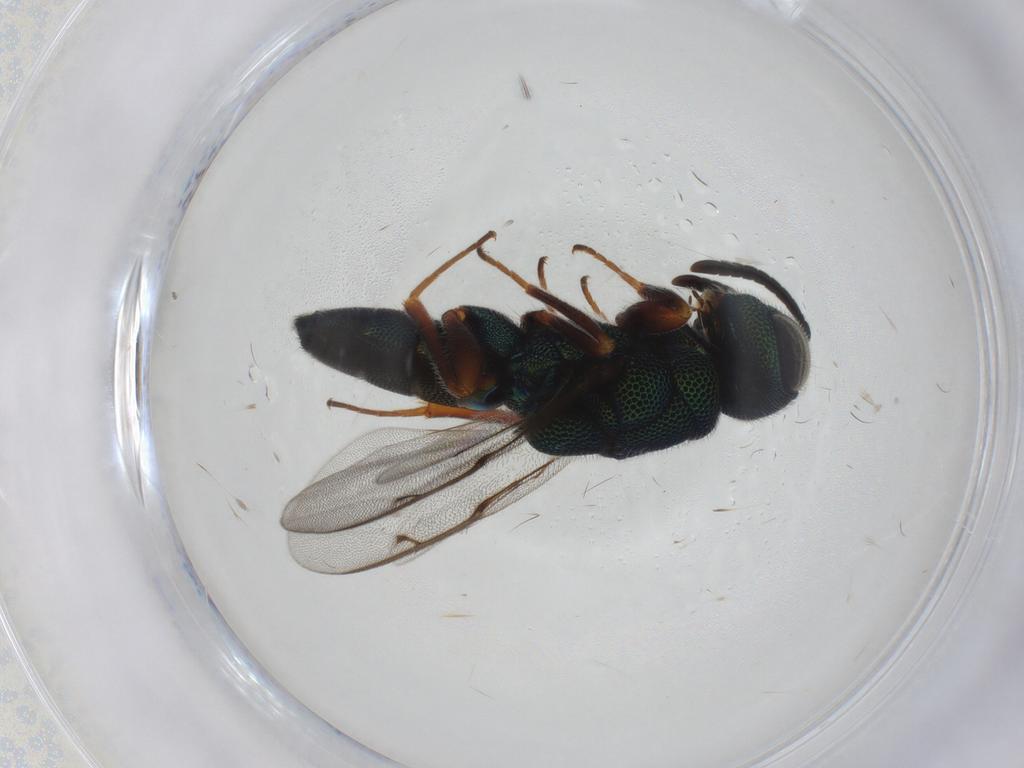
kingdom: Animalia
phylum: Arthropoda
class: Insecta
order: Hymenoptera
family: Lyciscidae
